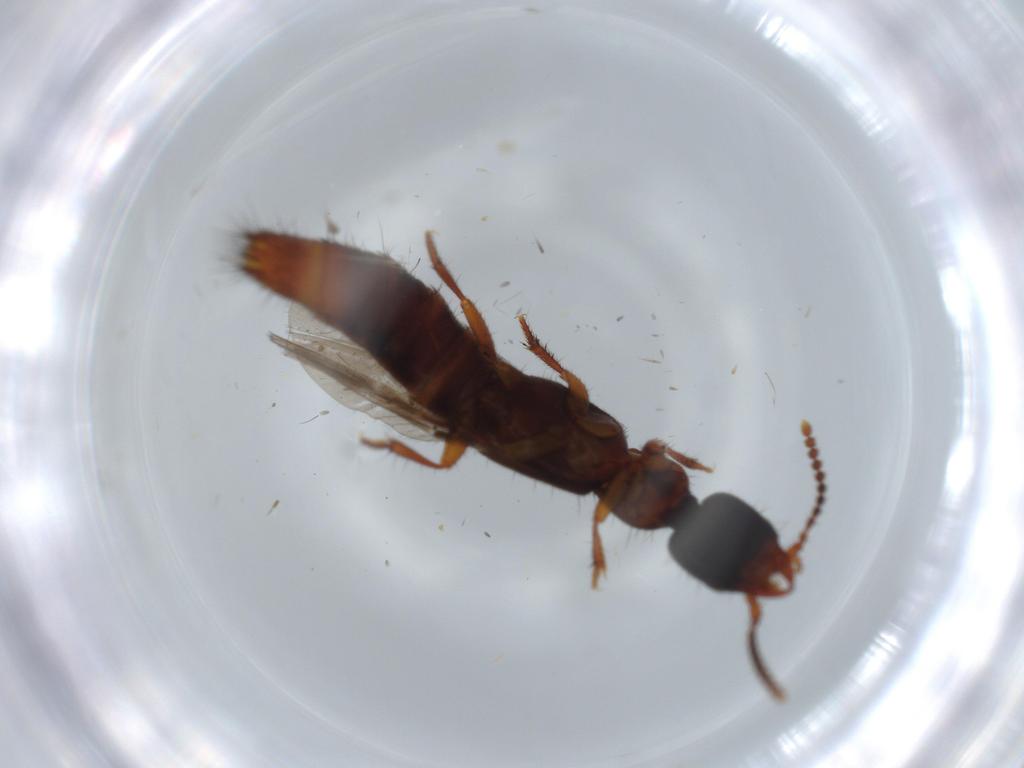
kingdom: Animalia
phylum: Arthropoda
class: Insecta
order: Coleoptera
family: Staphylinidae
